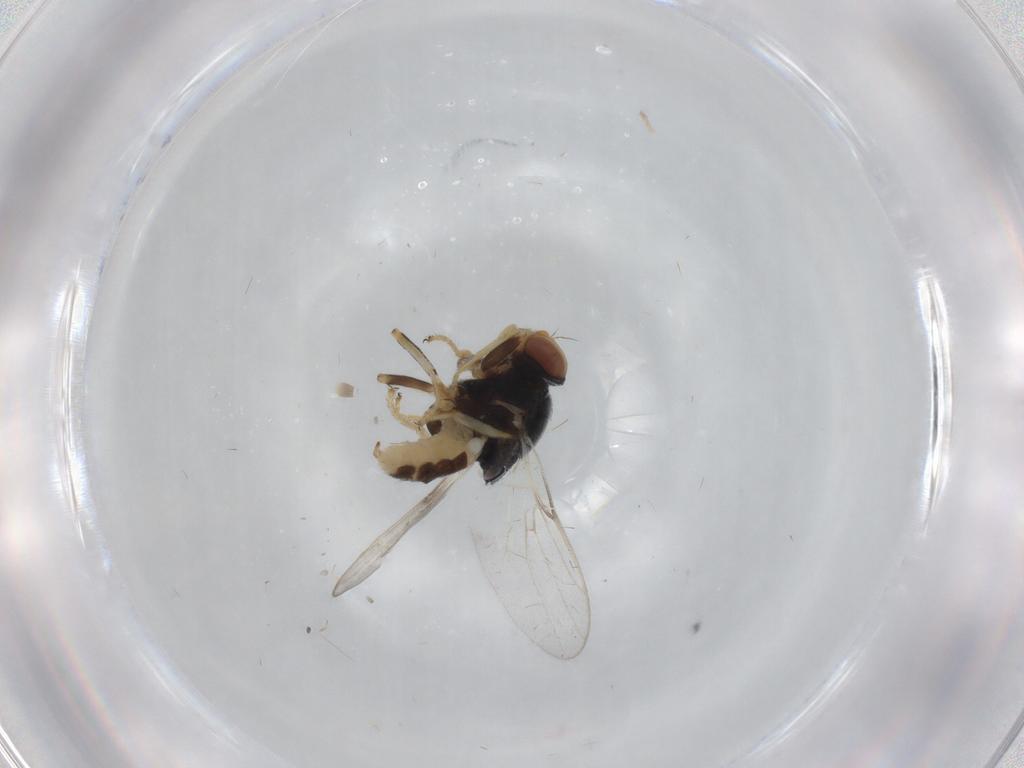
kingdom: Animalia
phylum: Arthropoda
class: Insecta
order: Diptera
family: Chloropidae
